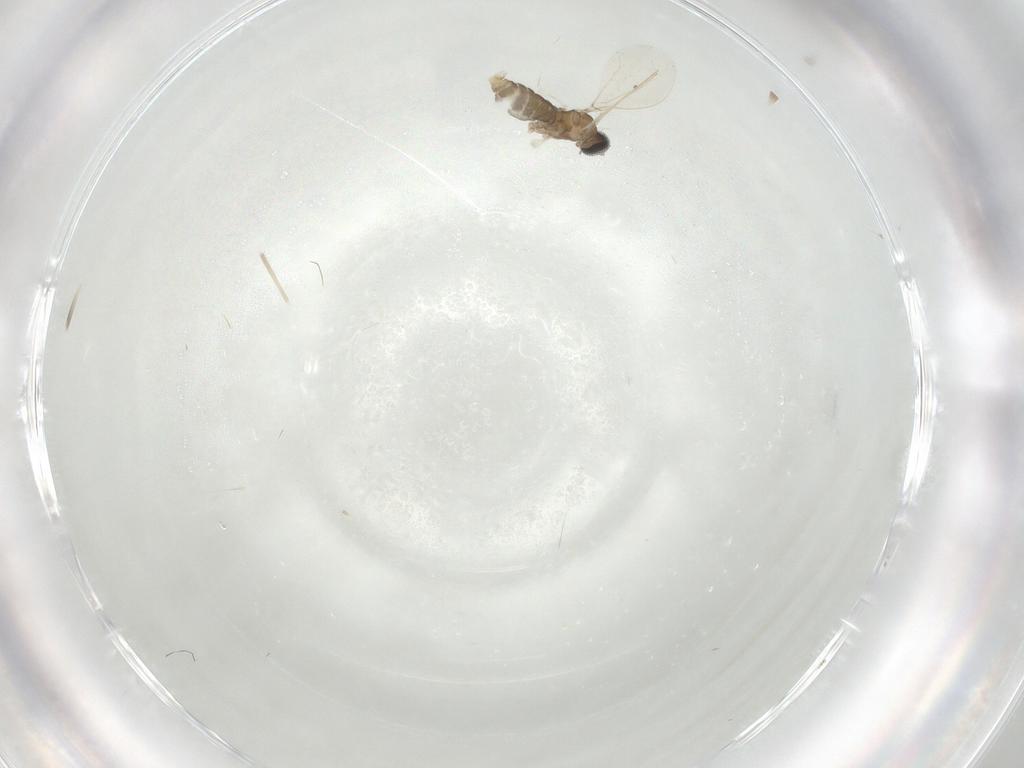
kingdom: Animalia
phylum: Arthropoda
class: Insecta
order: Diptera
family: Cecidomyiidae
